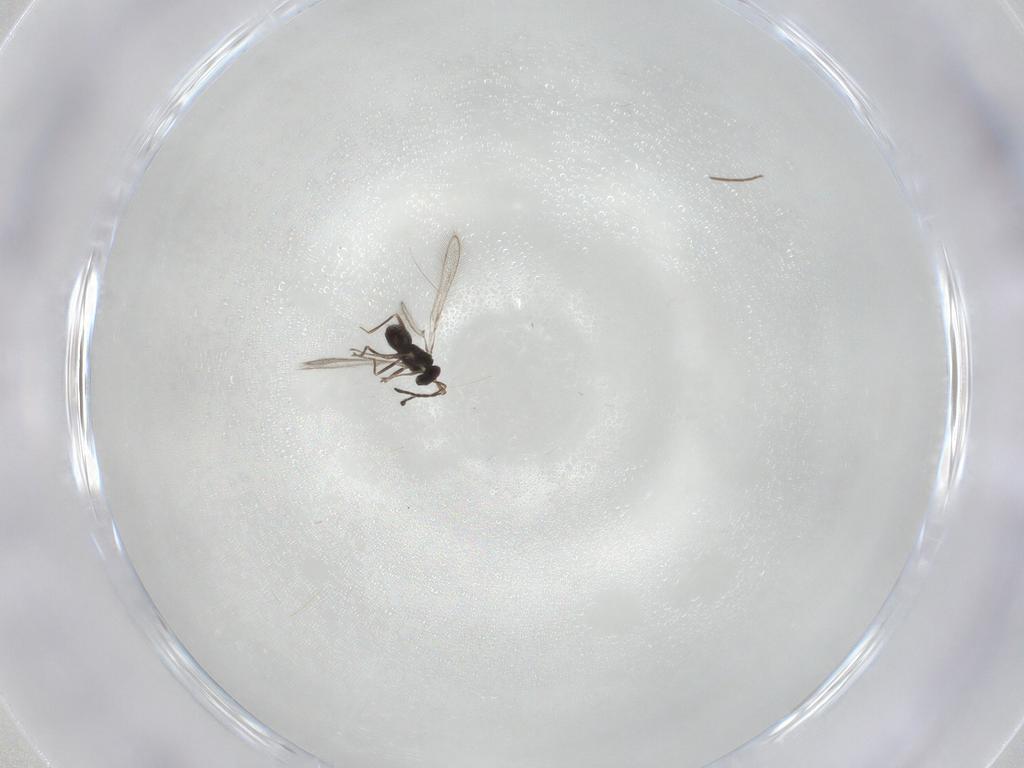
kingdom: Animalia
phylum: Arthropoda
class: Insecta
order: Hymenoptera
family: Mymaridae
